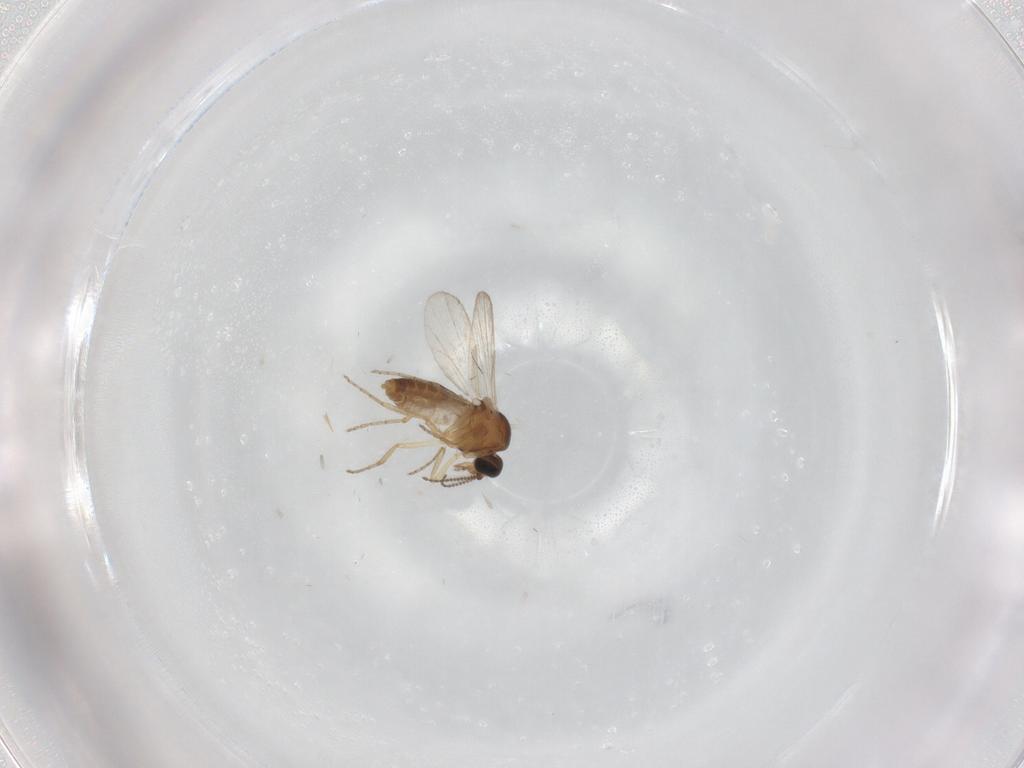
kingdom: Animalia
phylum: Arthropoda
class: Insecta
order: Diptera
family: Ceratopogonidae
